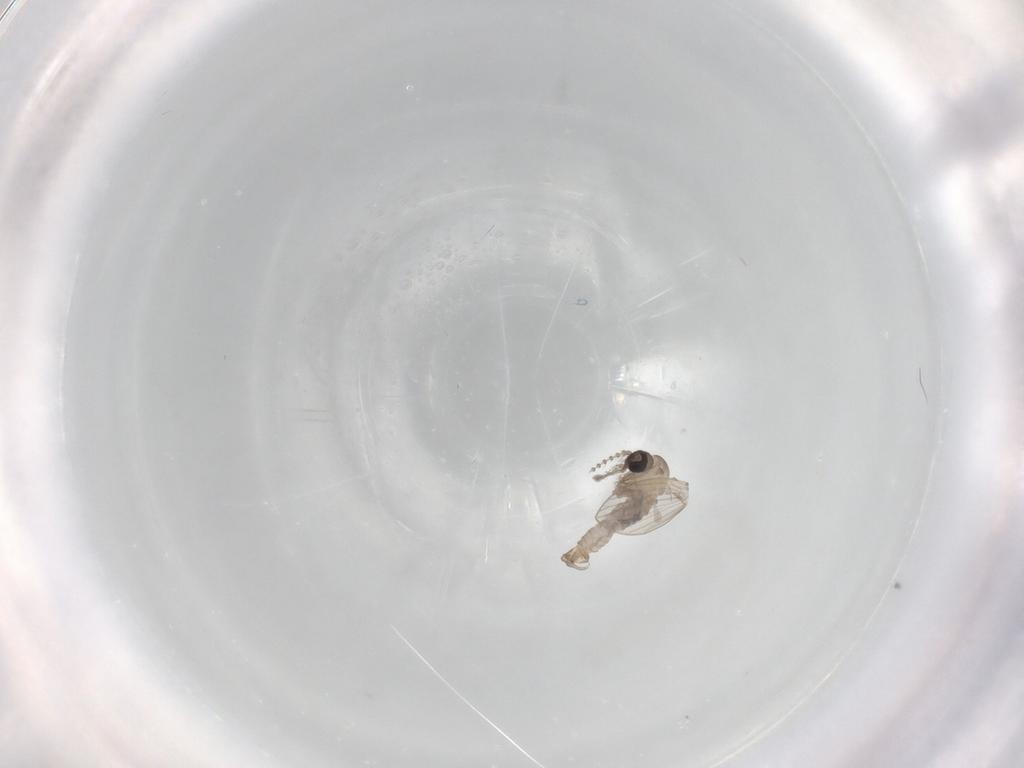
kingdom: Animalia
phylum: Arthropoda
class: Insecta
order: Diptera
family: Psychodidae
